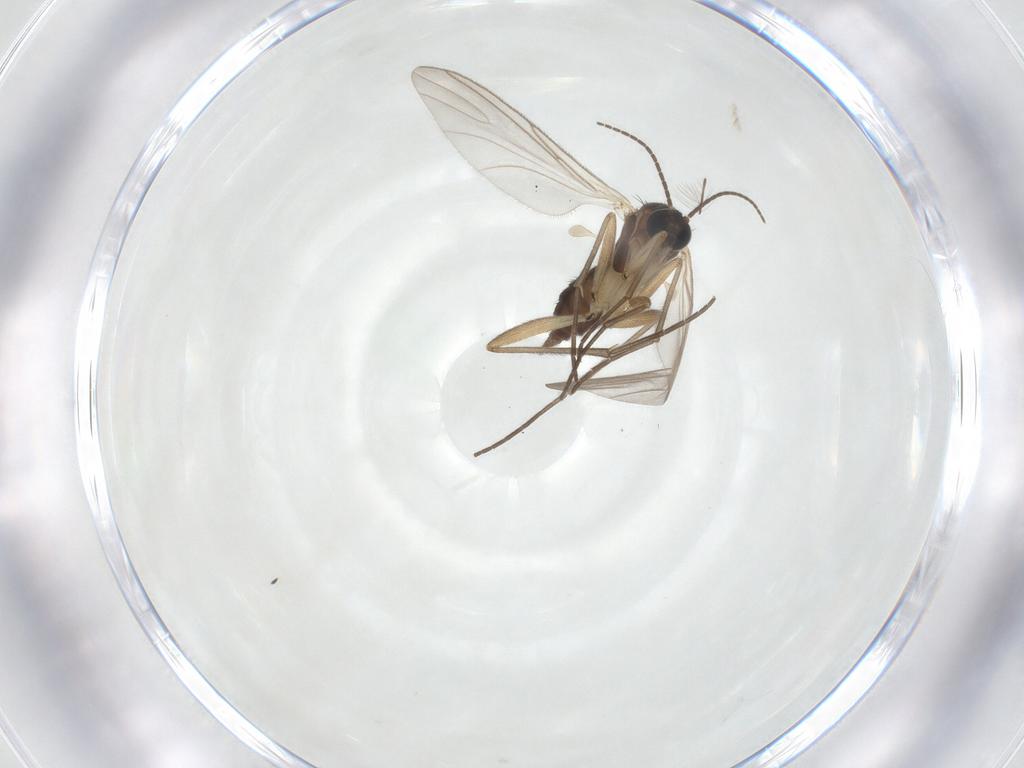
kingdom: Animalia
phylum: Arthropoda
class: Insecta
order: Diptera
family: Sciaridae
